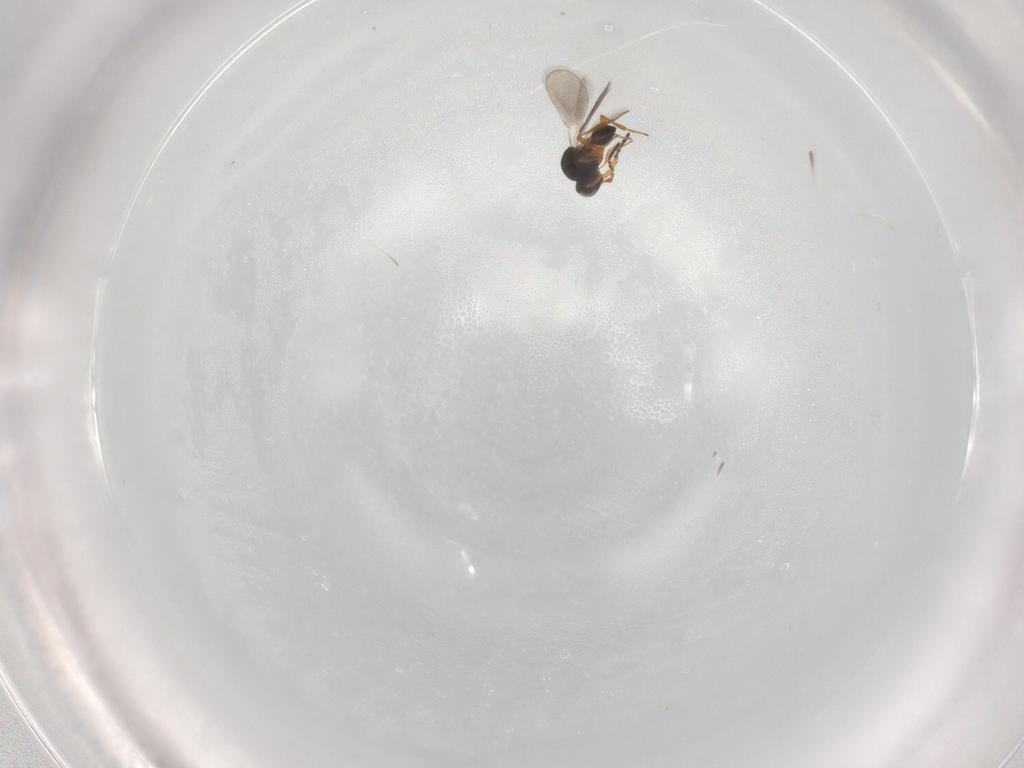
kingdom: Animalia
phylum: Arthropoda
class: Insecta
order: Hymenoptera
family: Platygastridae
